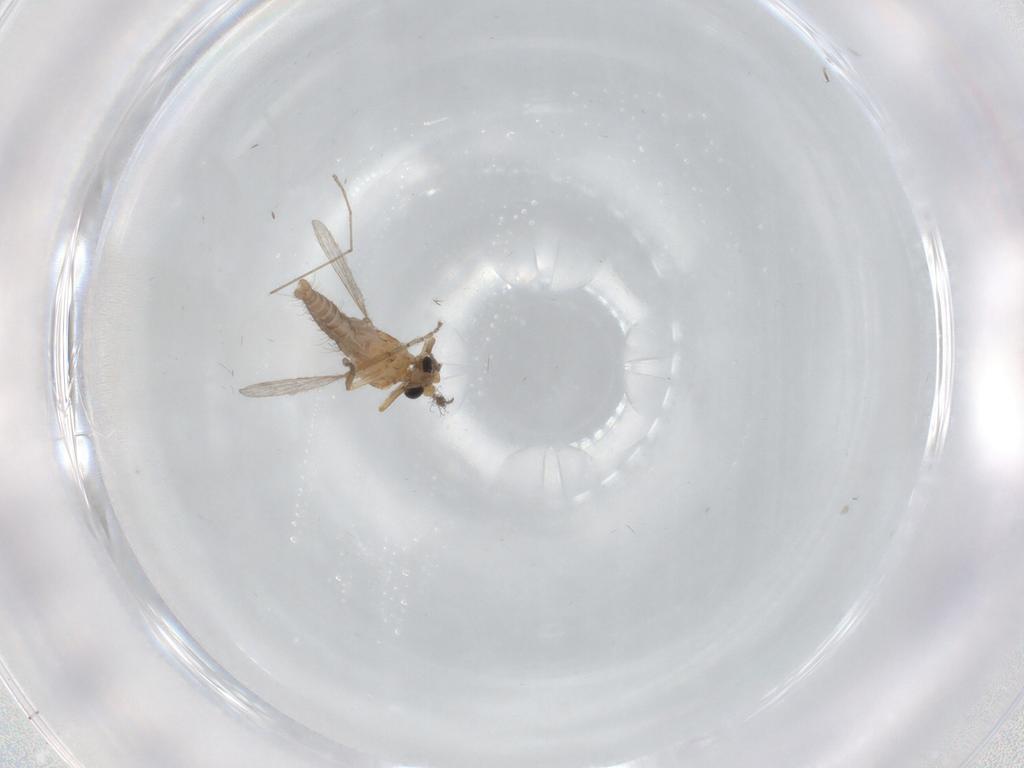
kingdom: Animalia
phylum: Arthropoda
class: Insecta
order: Diptera
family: Ceratopogonidae
